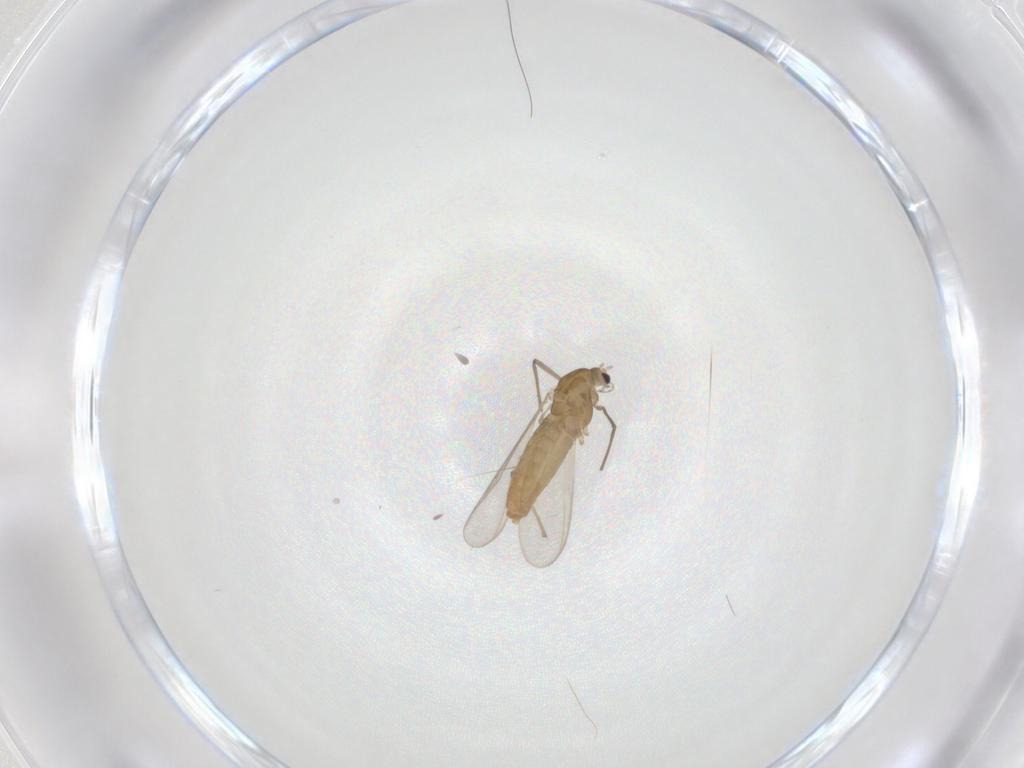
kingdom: Animalia
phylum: Arthropoda
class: Insecta
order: Diptera
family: Chironomidae
